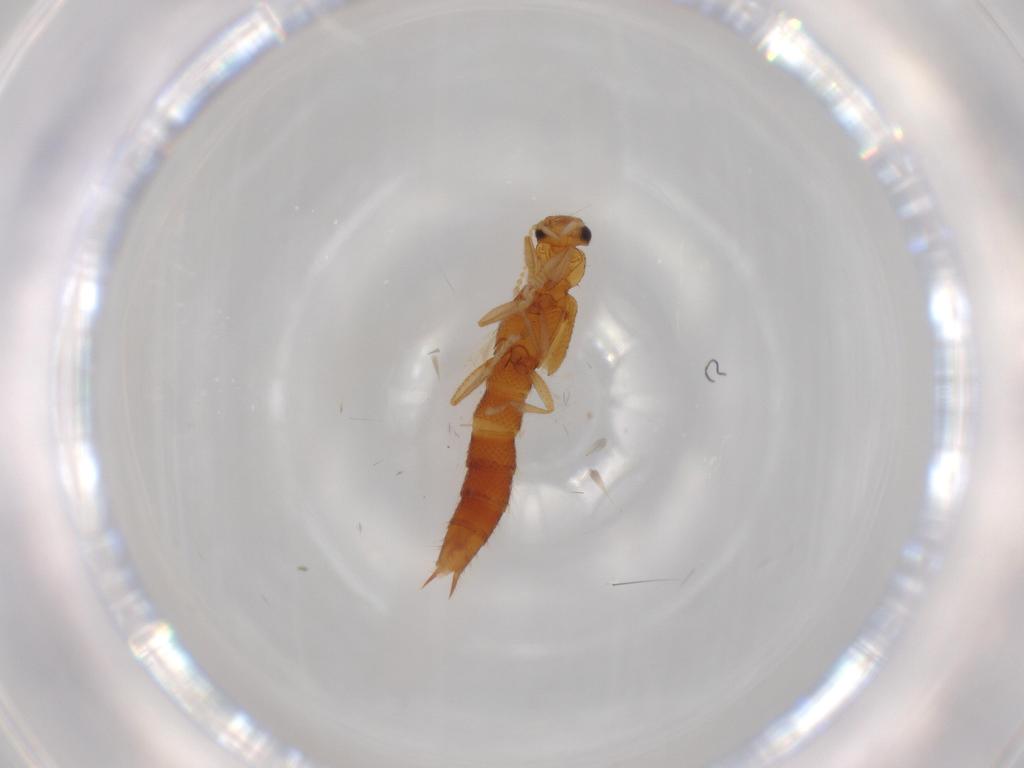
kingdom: Animalia
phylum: Arthropoda
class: Insecta
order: Coleoptera
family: Staphylinidae
